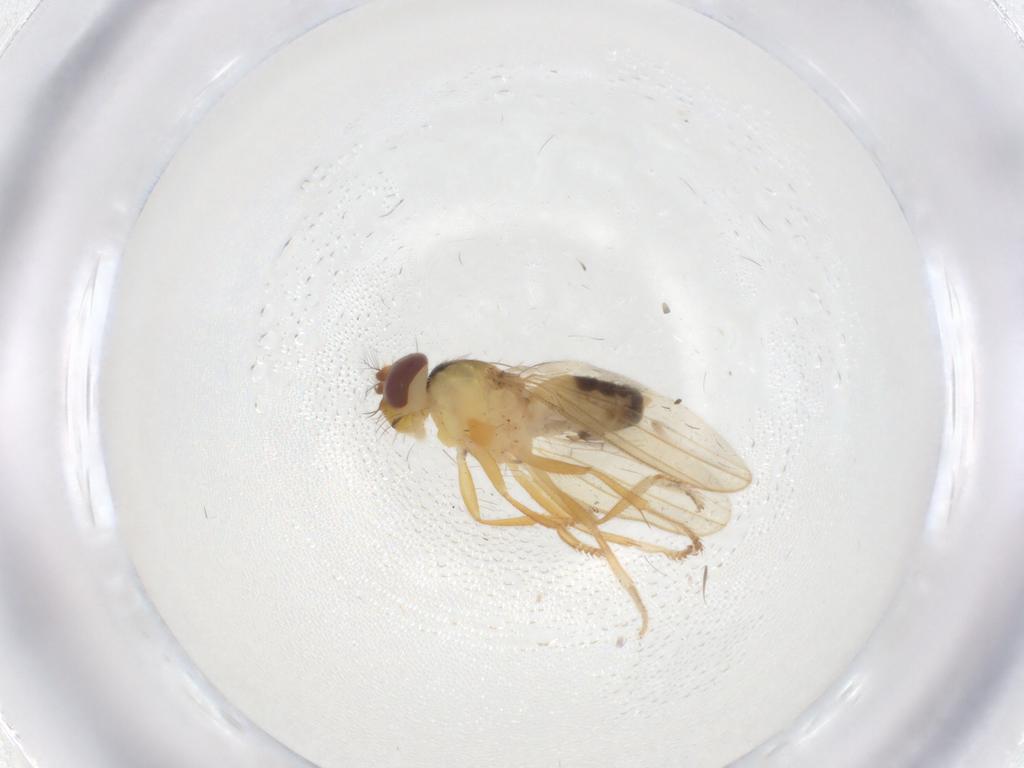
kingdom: Animalia
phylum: Arthropoda
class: Insecta
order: Diptera
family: Periscelididae
